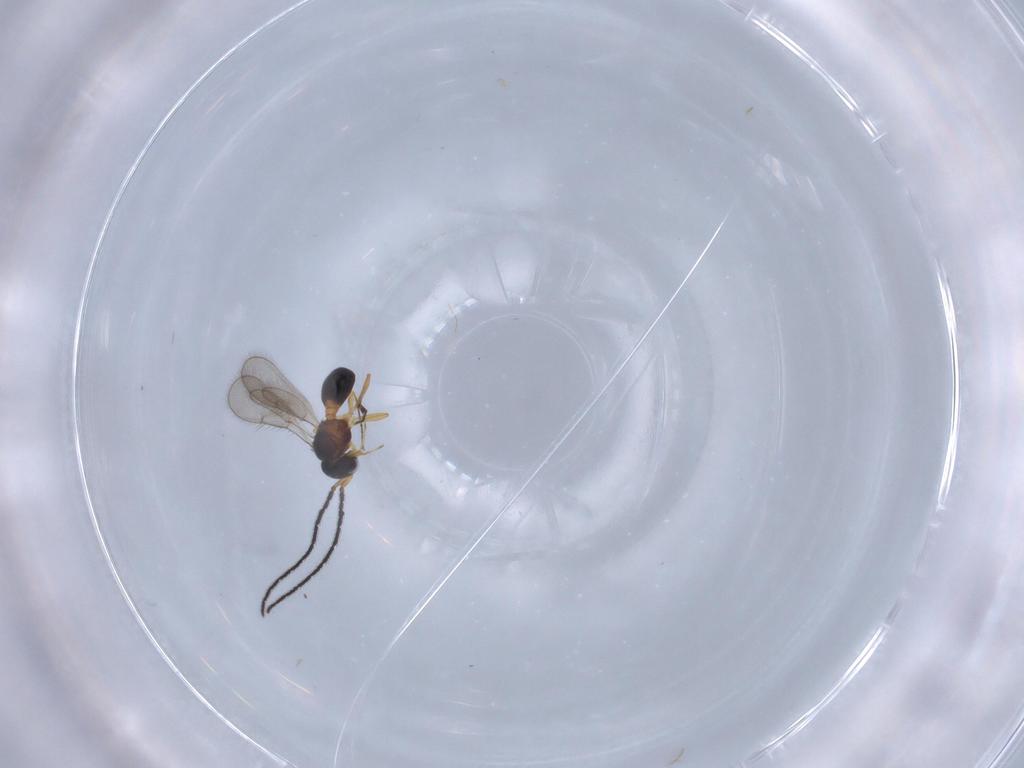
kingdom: Animalia
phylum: Arthropoda
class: Insecta
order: Hymenoptera
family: Scelionidae
